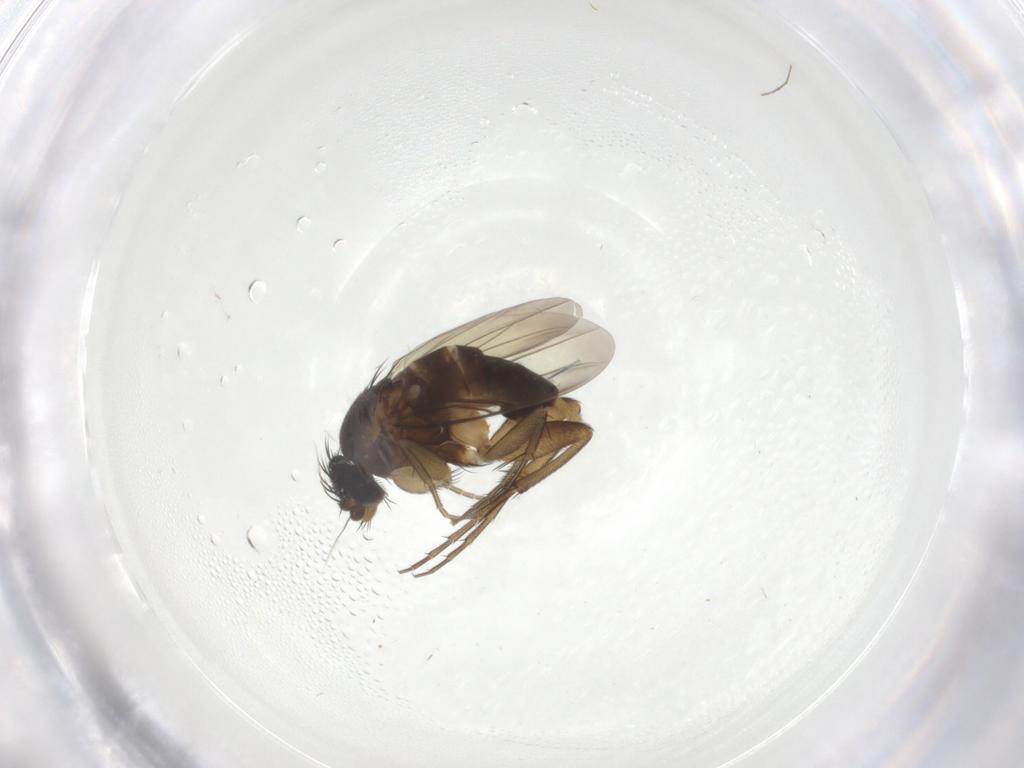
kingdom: Animalia
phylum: Arthropoda
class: Insecta
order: Diptera
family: Phoridae
